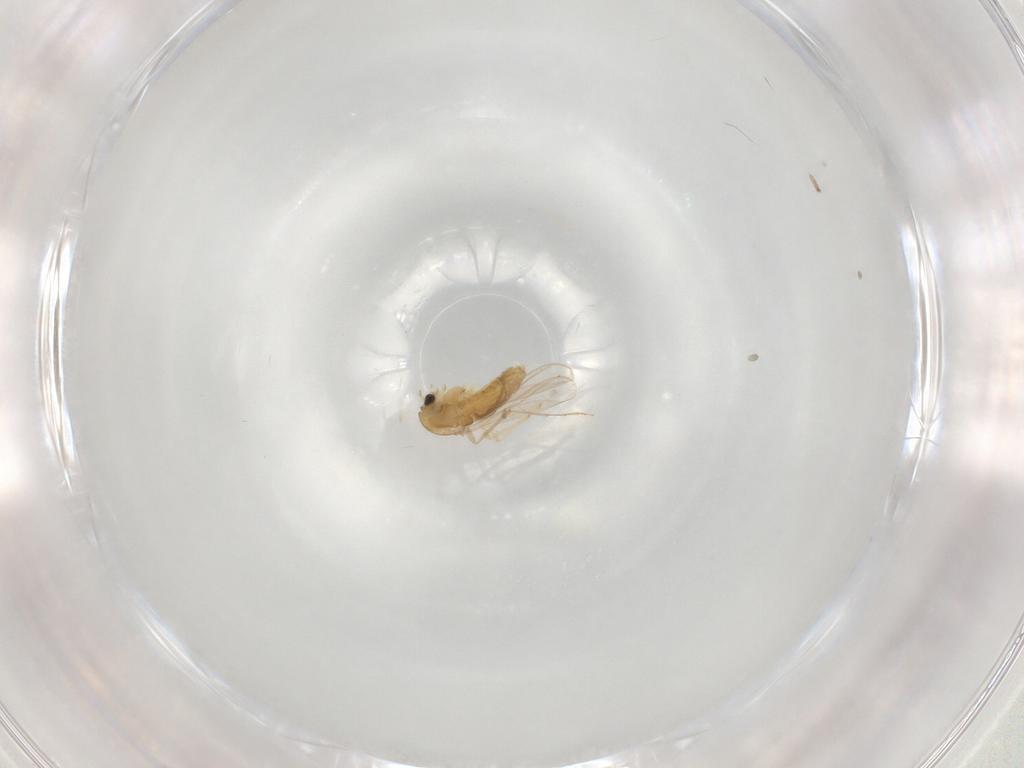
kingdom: Animalia
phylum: Arthropoda
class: Insecta
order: Diptera
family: Chironomidae
